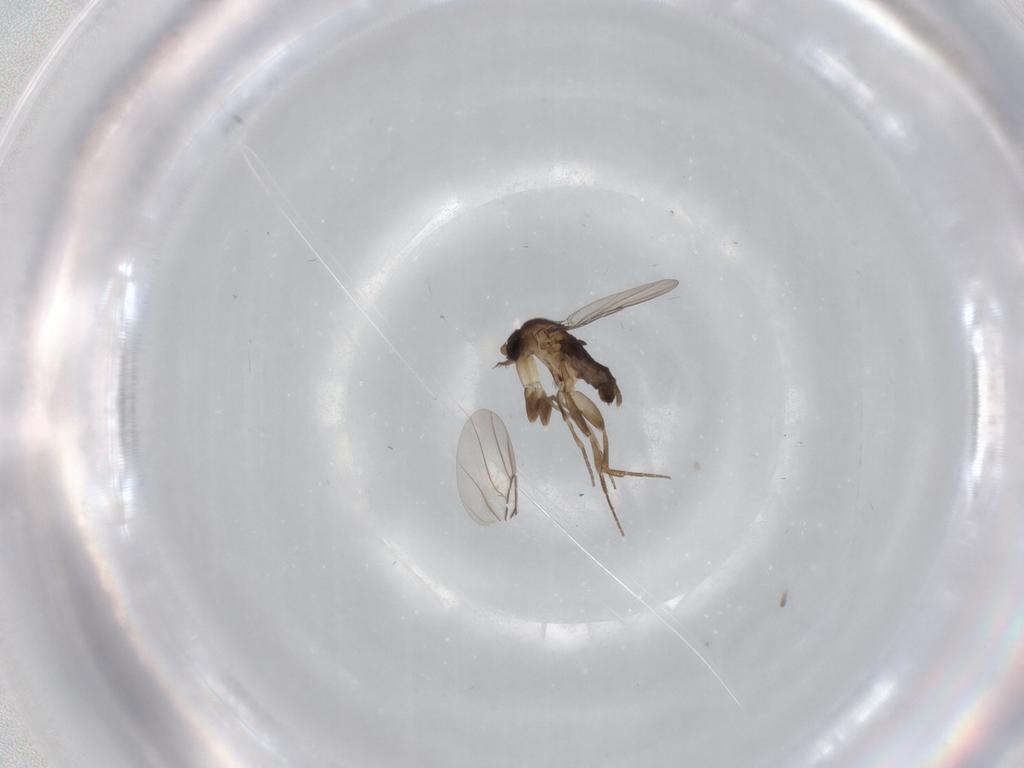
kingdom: Animalia
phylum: Arthropoda
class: Insecta
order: Diptera
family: Phoridae
